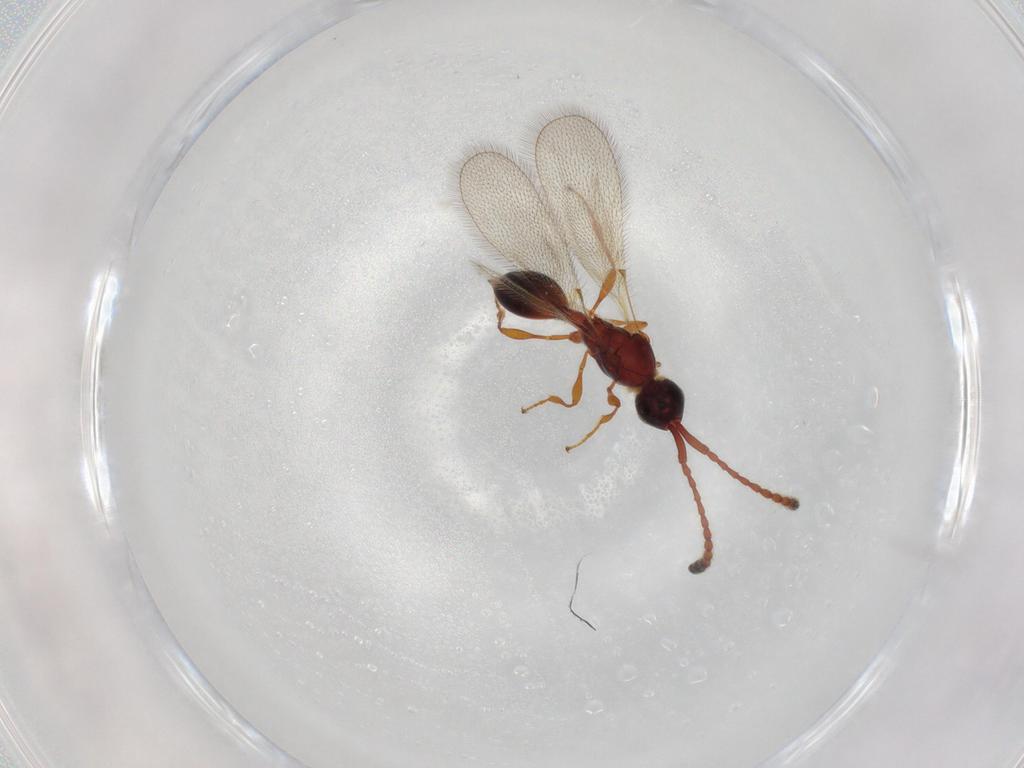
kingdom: Animalia
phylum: Arthropoda
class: Insecta
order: Hymenoptera
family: Diapriidae
